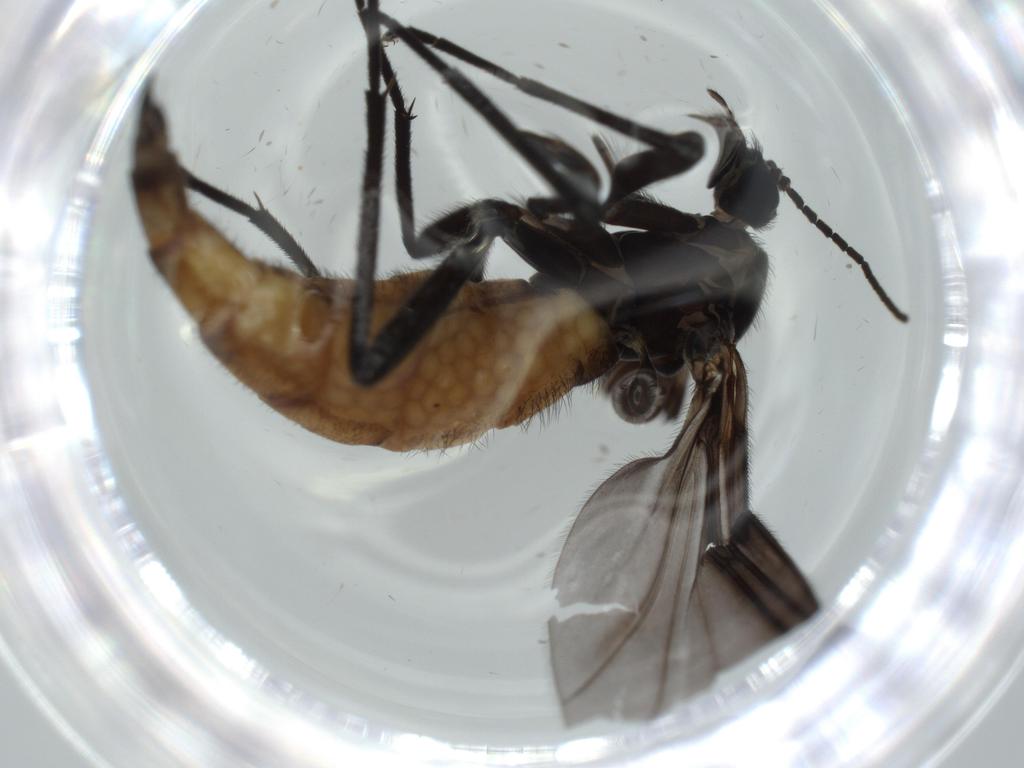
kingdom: Animalia
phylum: Arthropoda
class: Insecta
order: Diptera
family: Cecidomyiidae
